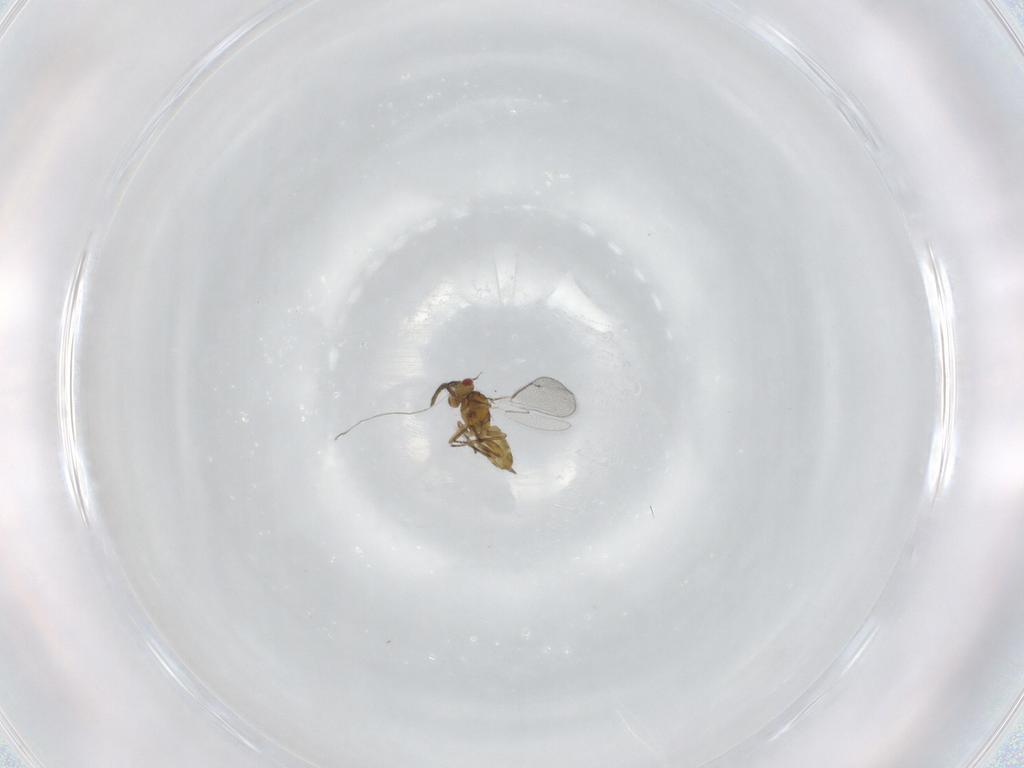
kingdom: Animalia
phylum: Arthropoda
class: Insecta
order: Hymenoptera
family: Eulophidae
